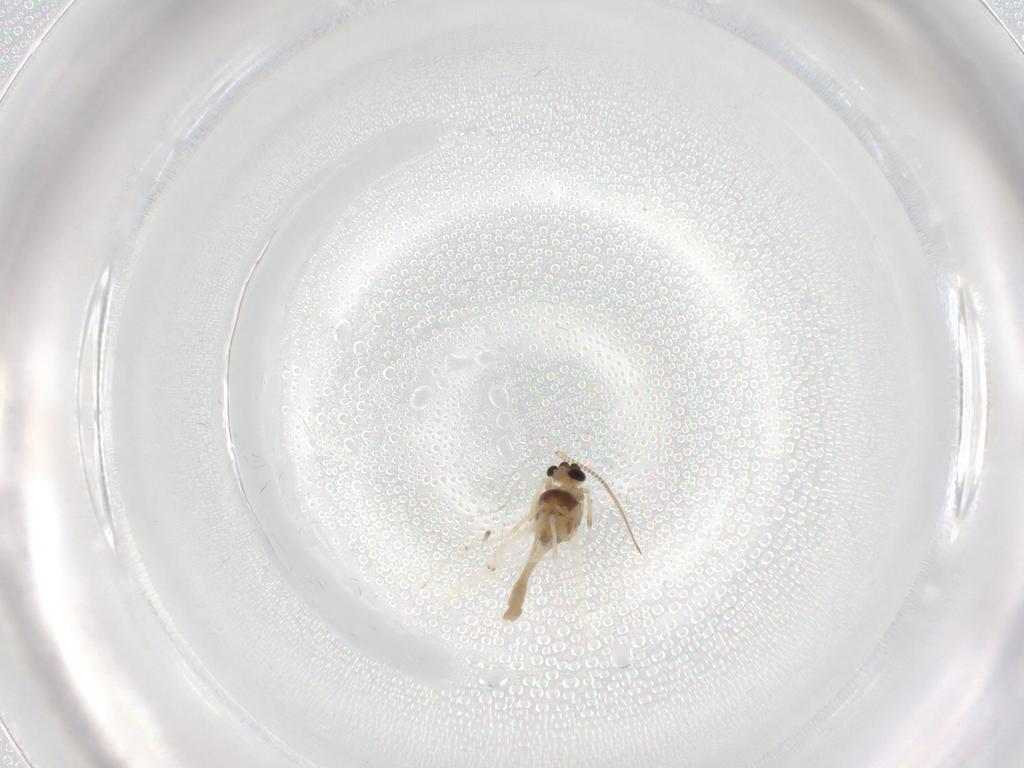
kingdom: Animalia
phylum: Arthropoda
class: Insecta
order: Diptera
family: Chironomidae
